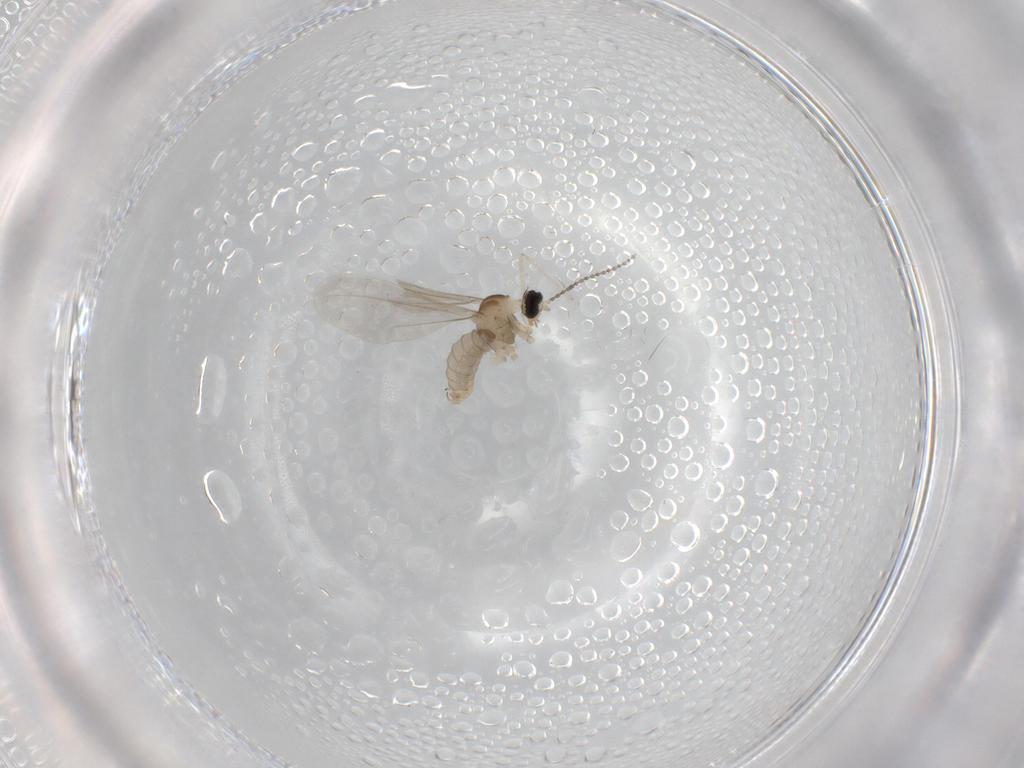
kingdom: Animalia
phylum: Arthropoda
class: Insecta
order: Diptera
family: Cecidomyiidae
